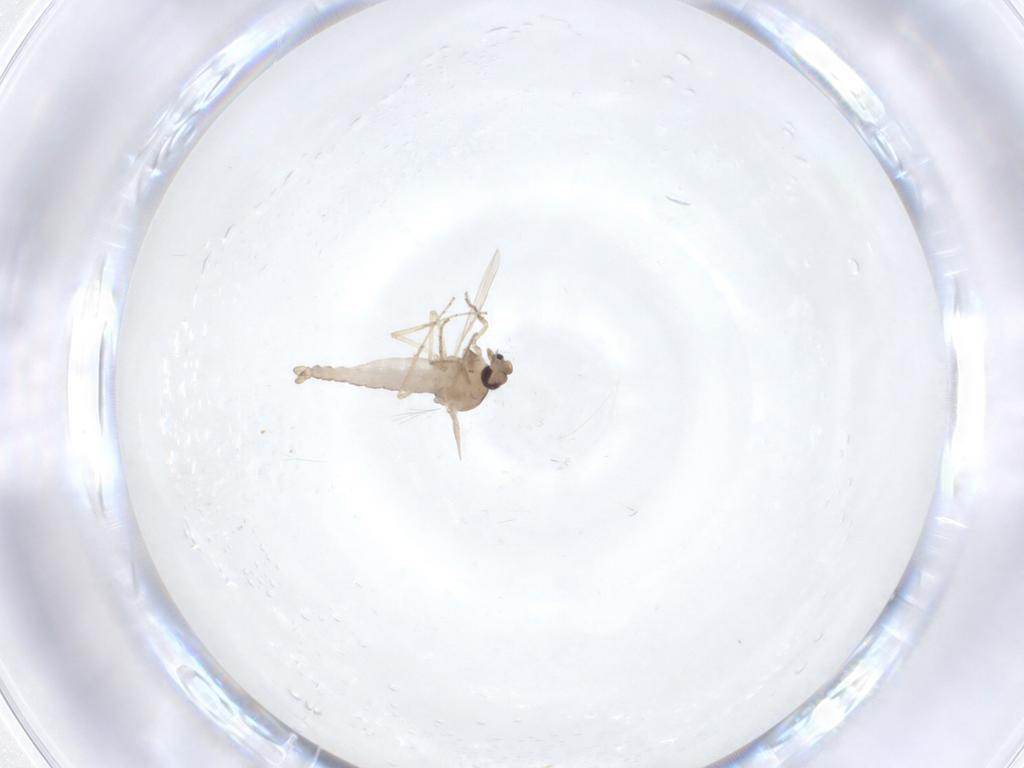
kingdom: Animalia
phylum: Arthropoda
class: Insecta
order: Diptera
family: Ceratopogonidae
